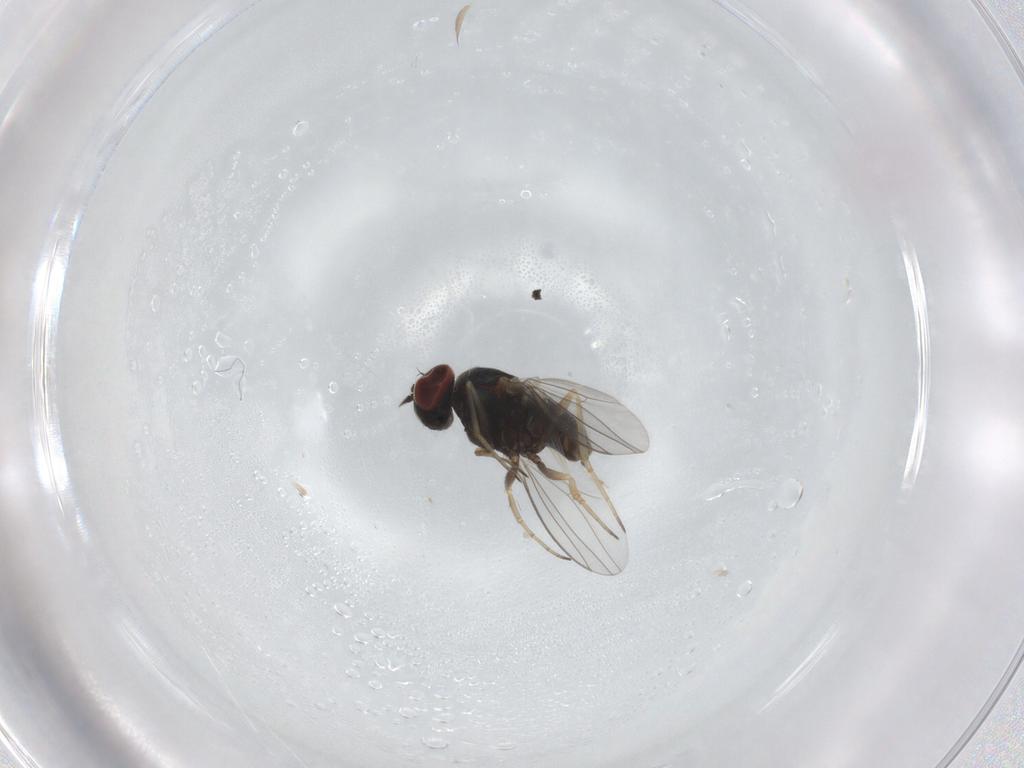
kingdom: Animalia
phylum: Arthropoda
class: Insecta
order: Diptera
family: Dolichopodidae
